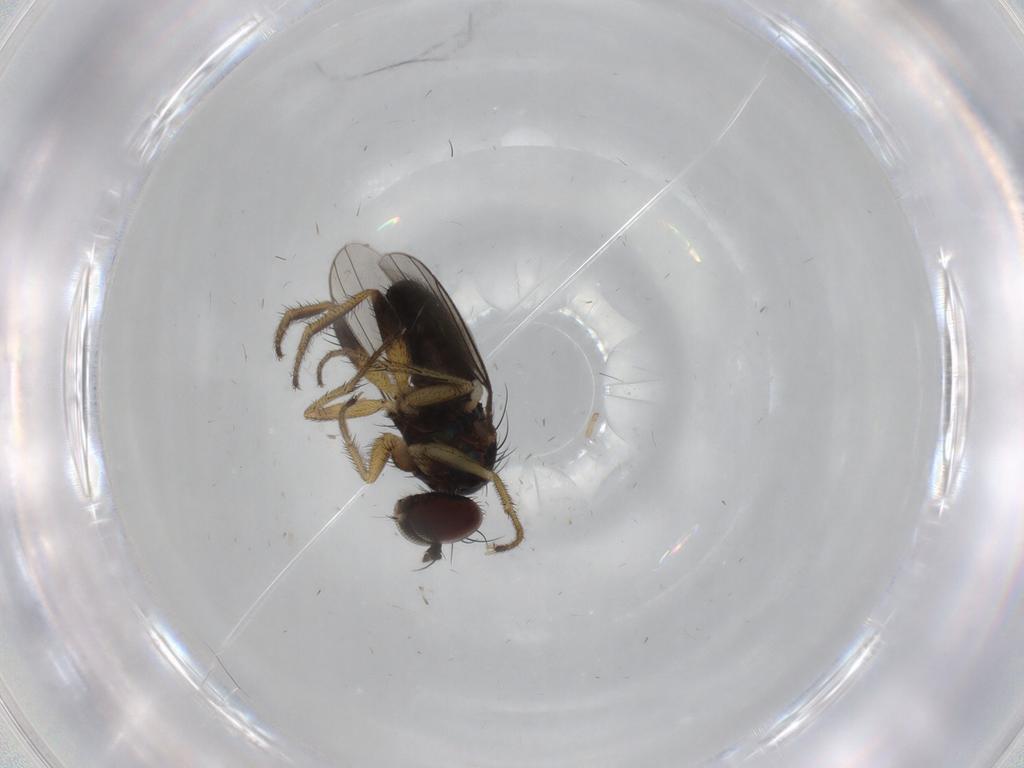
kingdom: Animalia
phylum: Arthropoda
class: Insecta
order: Diptera
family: Dolichopodidae
